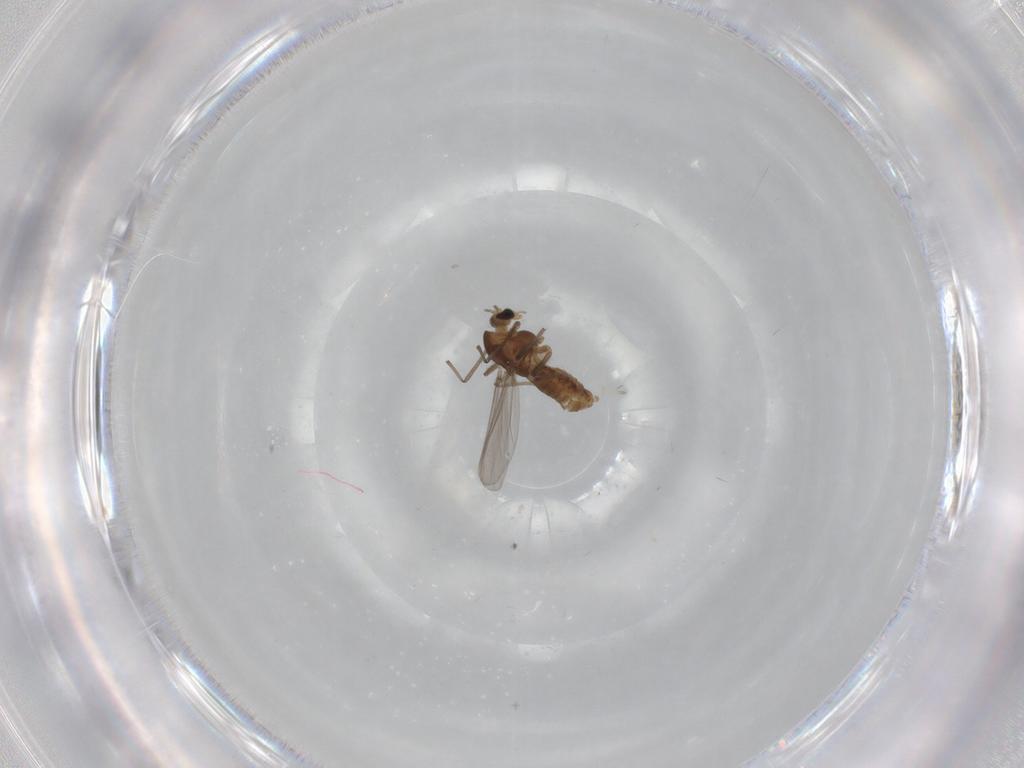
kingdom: Animalia
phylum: Arthropoda
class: Insecta
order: Diptera
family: Chironomidae
